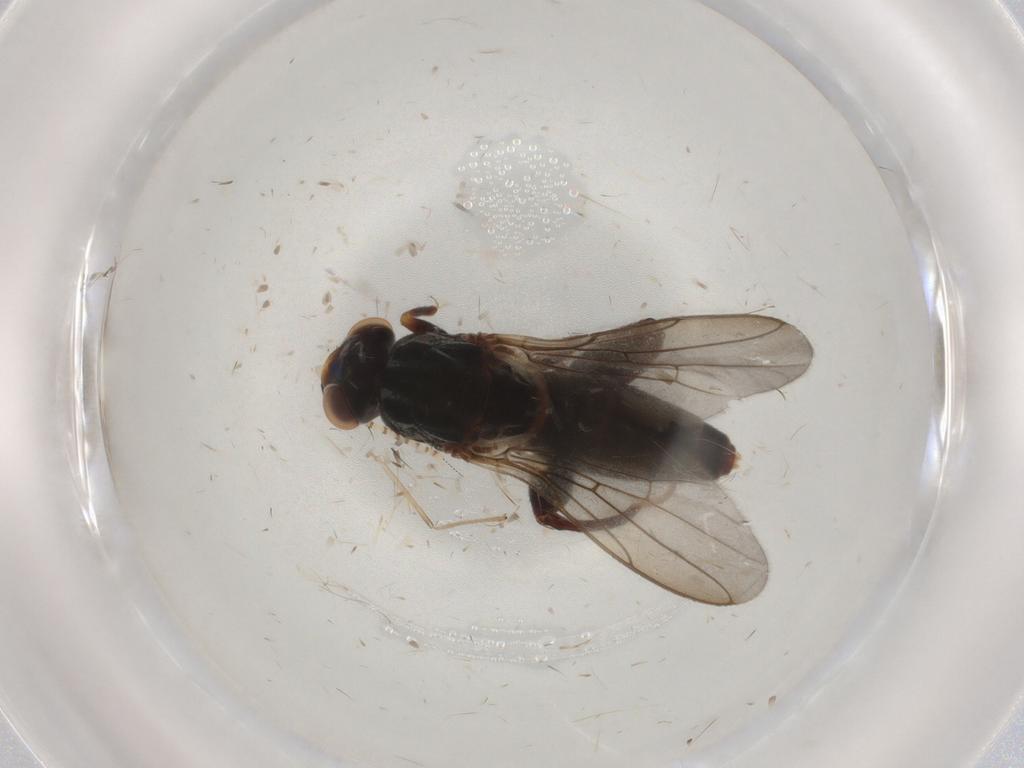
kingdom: Animalia
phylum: Arthropoda
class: Insecta
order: Diptera
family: Chloropidae
